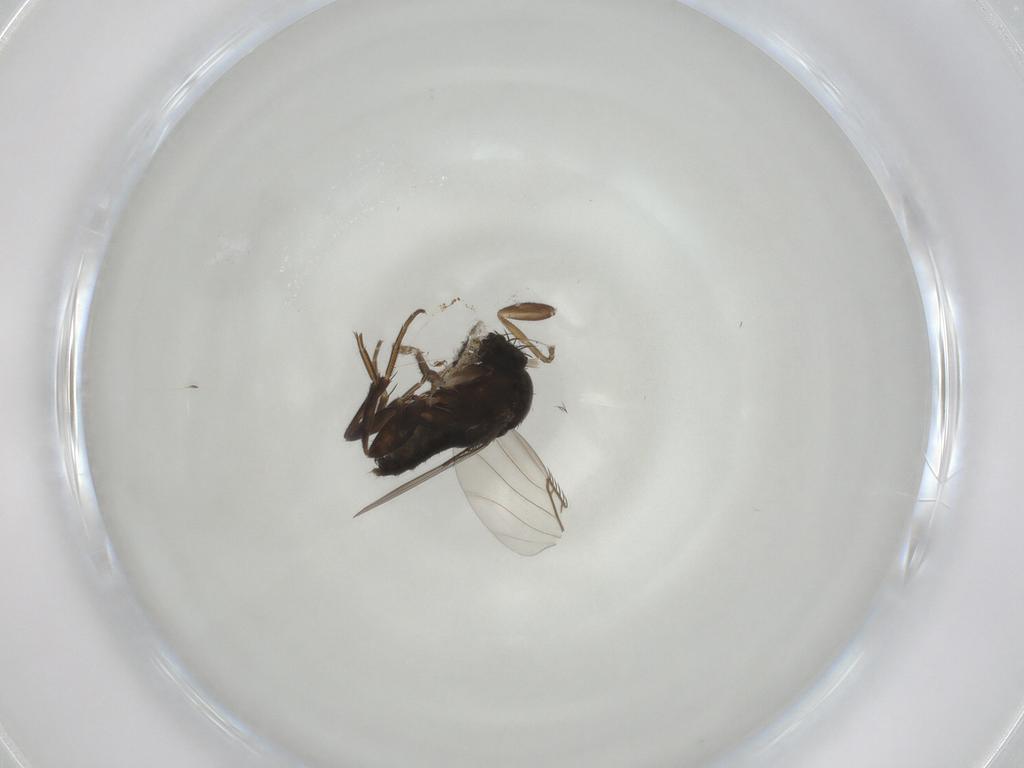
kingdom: Animalia
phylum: Arthropoda
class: Insecta
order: Diptera
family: Phoridae
